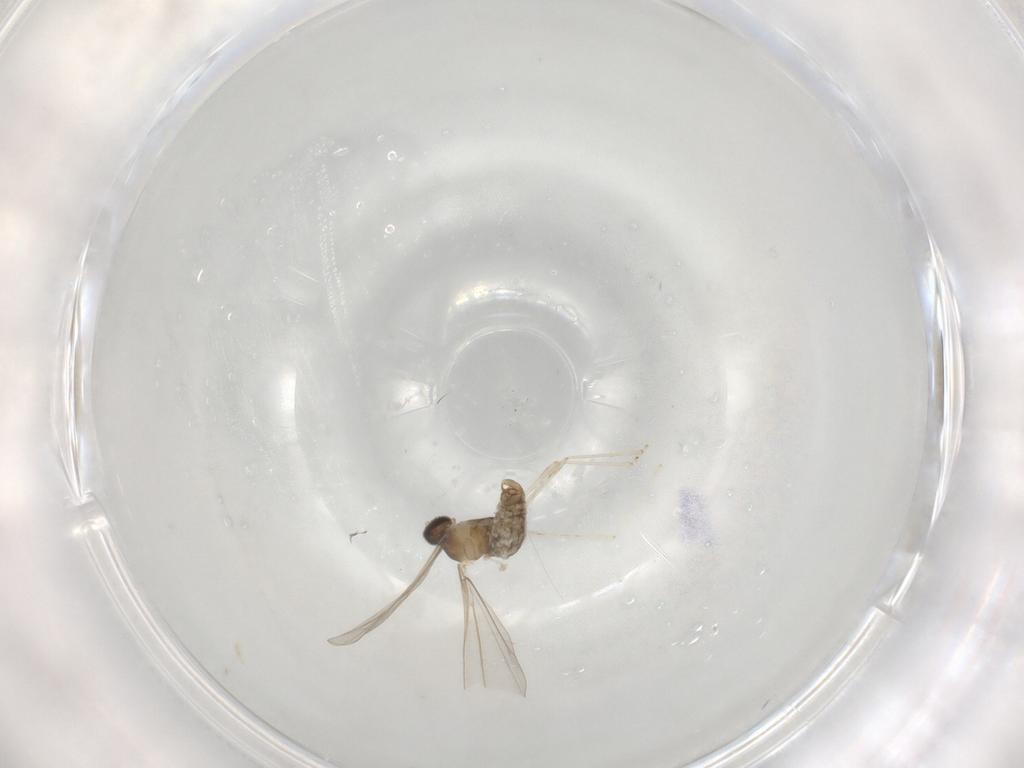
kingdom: Animalia
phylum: Arthropoda
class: Insecta
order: Diptera
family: Cecidomyiidae
